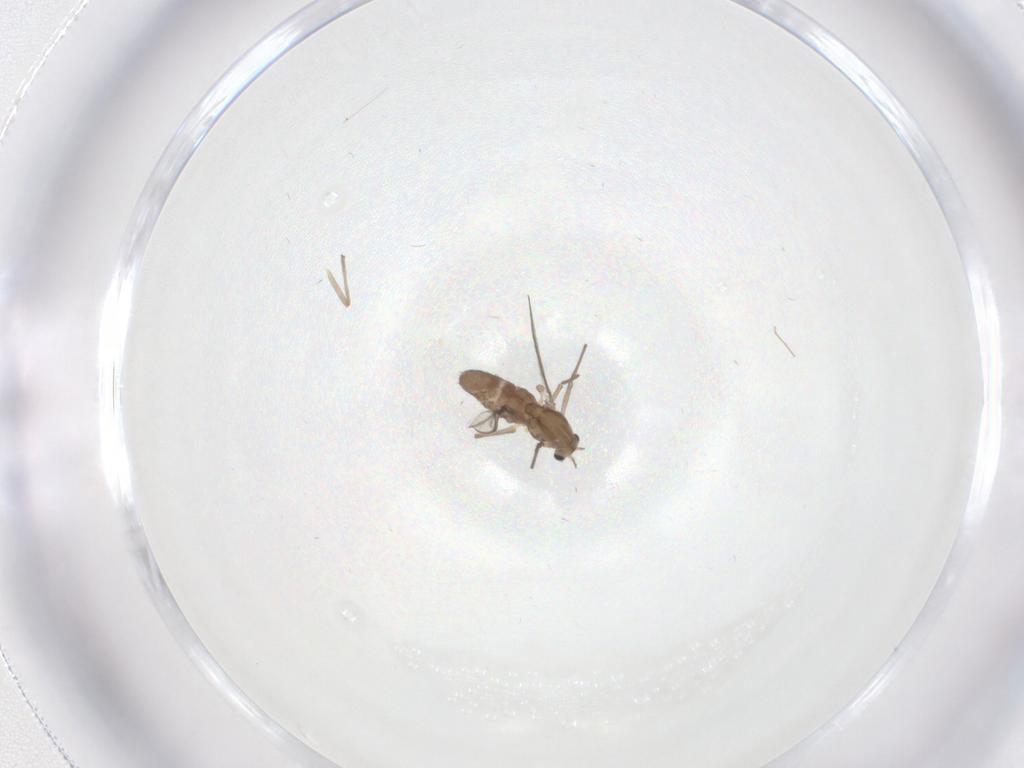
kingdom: Animalia
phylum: Arthropoda
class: Insecta
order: Diptera
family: Chironomidae
